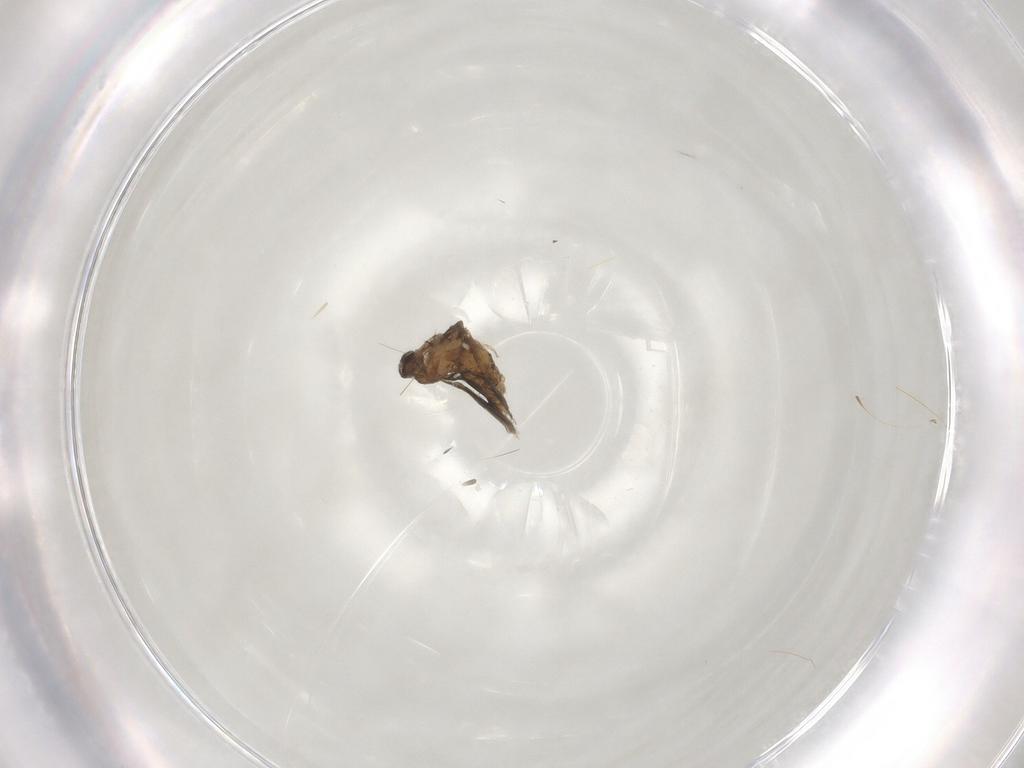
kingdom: Animalia
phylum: Arthropoda
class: Insecta
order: Diptera
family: Cecidomyiidae
